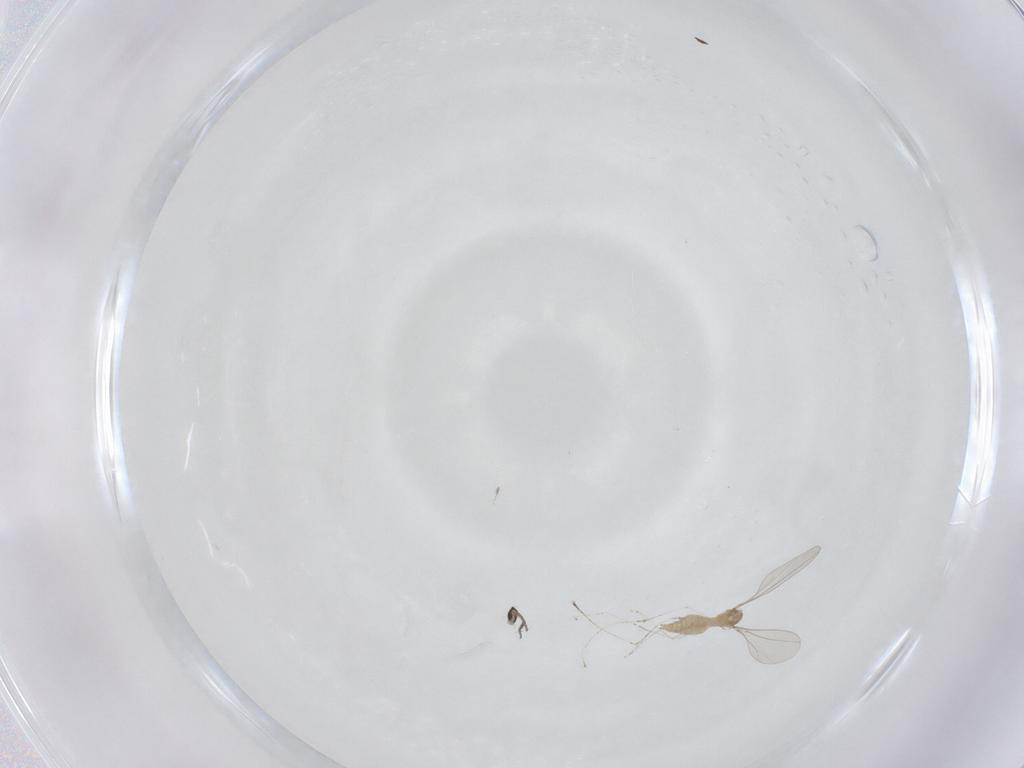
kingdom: Animalia
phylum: Arthropoda
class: Insecta
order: Diptera
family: Cecidomyiidae
